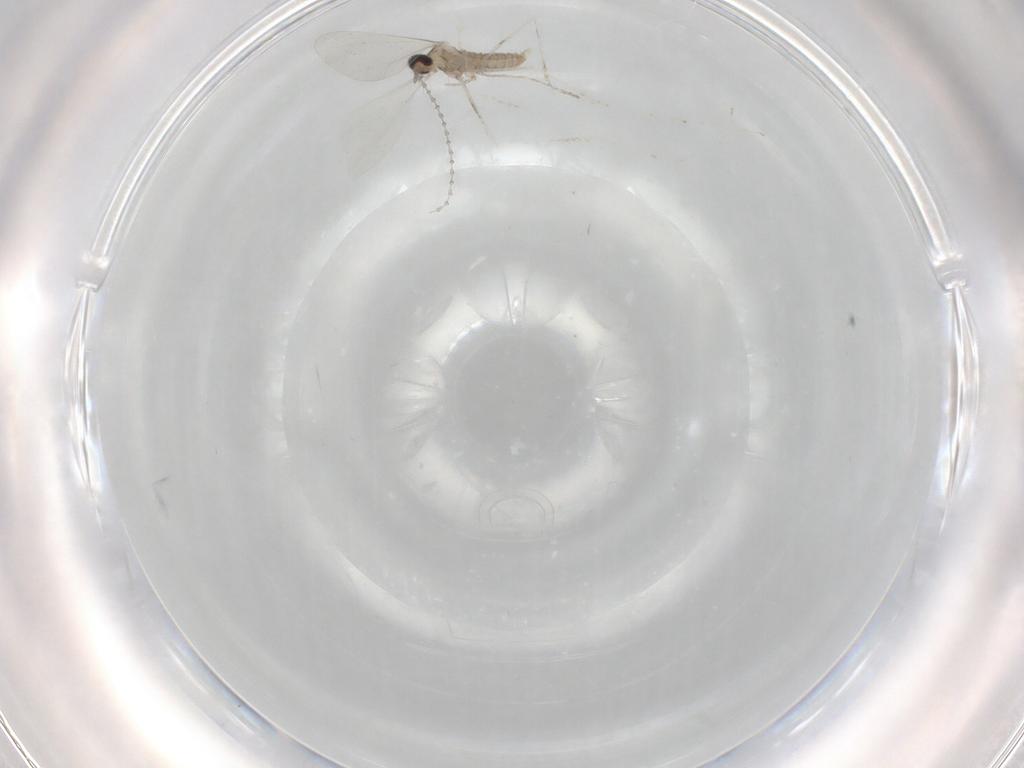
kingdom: Animalia
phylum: Arthropoda
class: Insecta
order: Diptera
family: Cecidomyiidae
